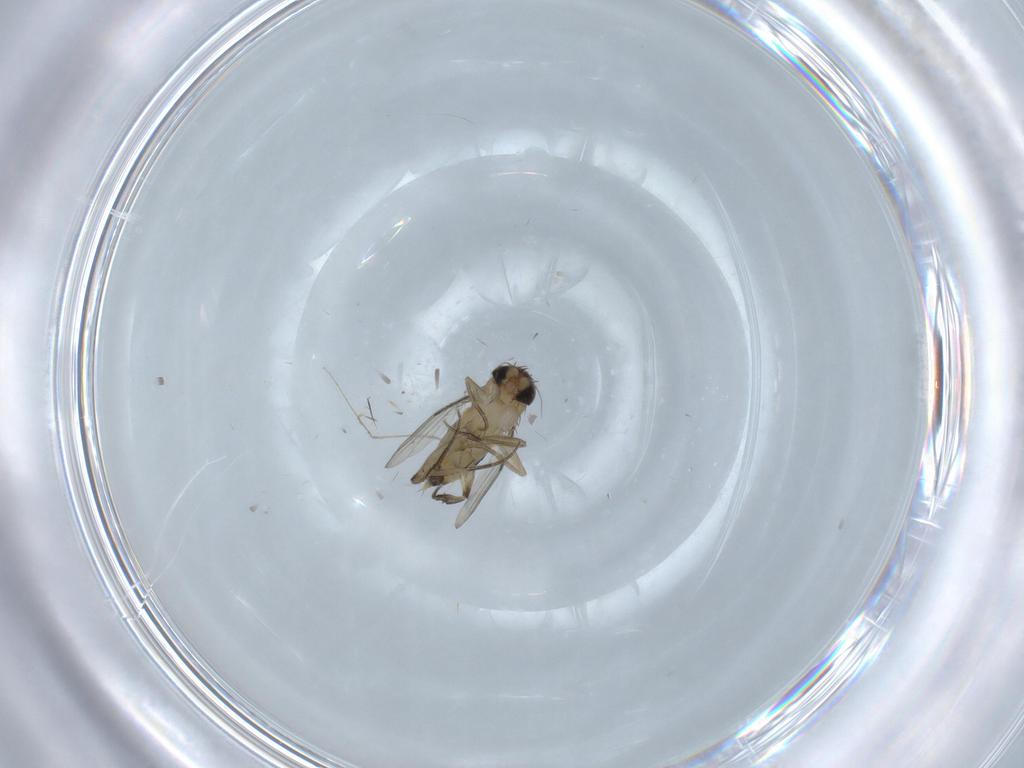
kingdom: Animalia
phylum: Arthropoda
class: Insecta
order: Diptera
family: Phoridae
